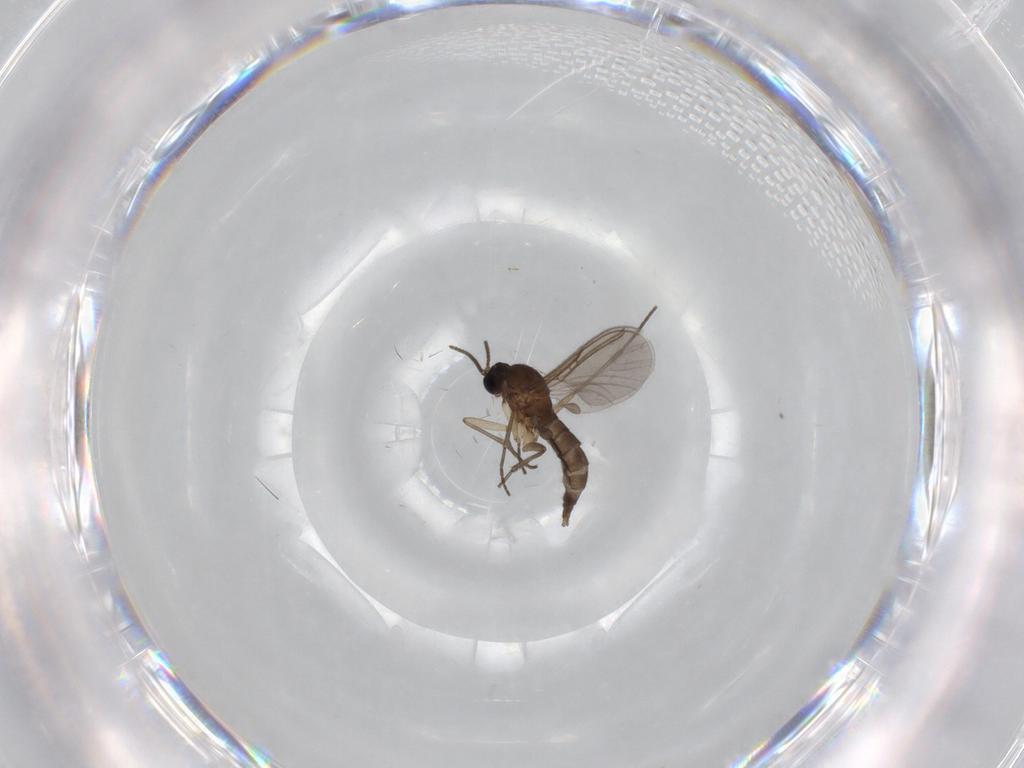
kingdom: Animalia
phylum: Arthropoda
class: Insecta
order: Diptera
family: Sciaridae
